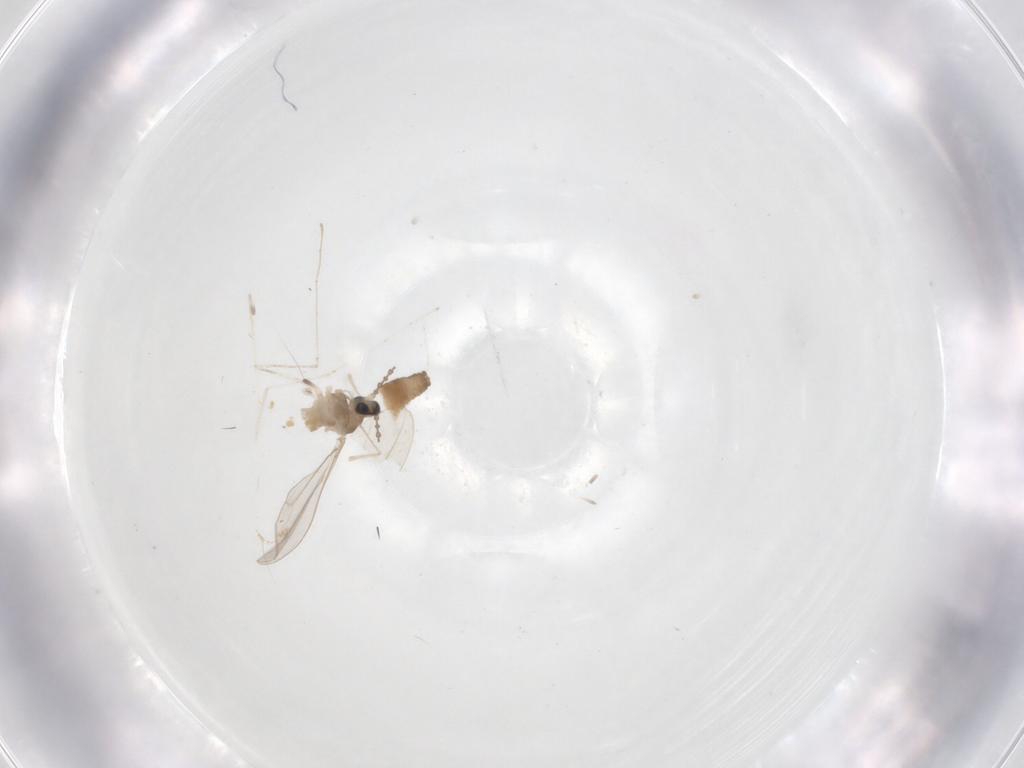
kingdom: Animalia
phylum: Arthropoda
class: Insecta
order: Diptera
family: Cecidomyiidae
